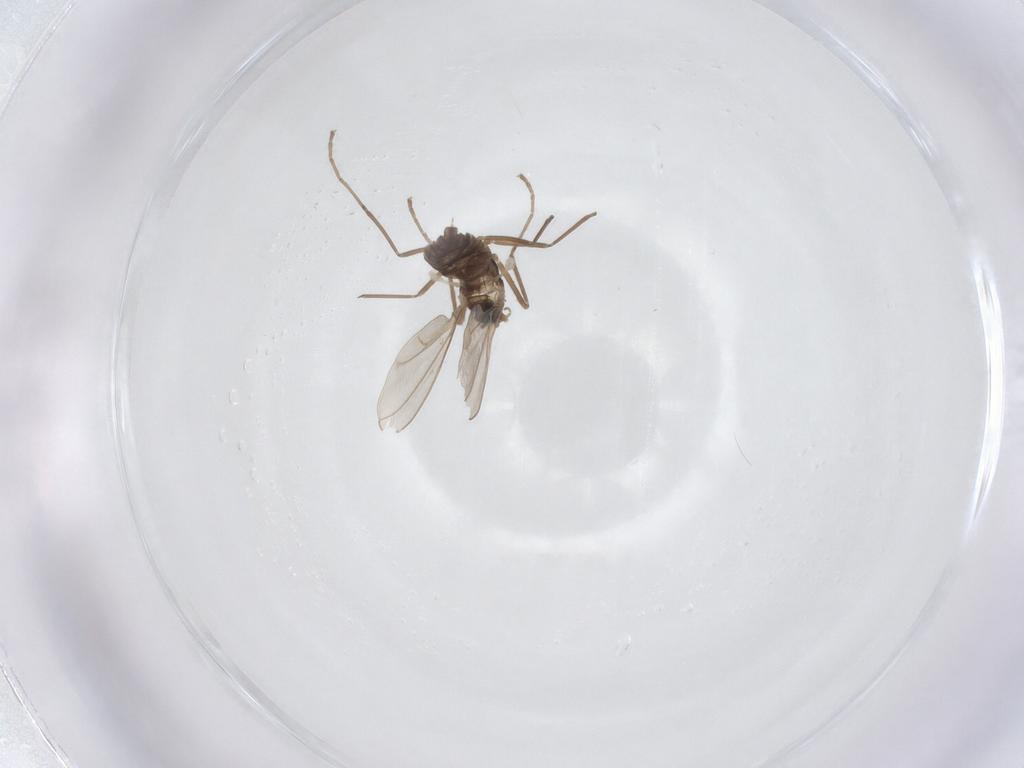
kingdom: Animalia
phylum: Arthropoda
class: Insecta
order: Diptera
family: Cecidomyiidae
